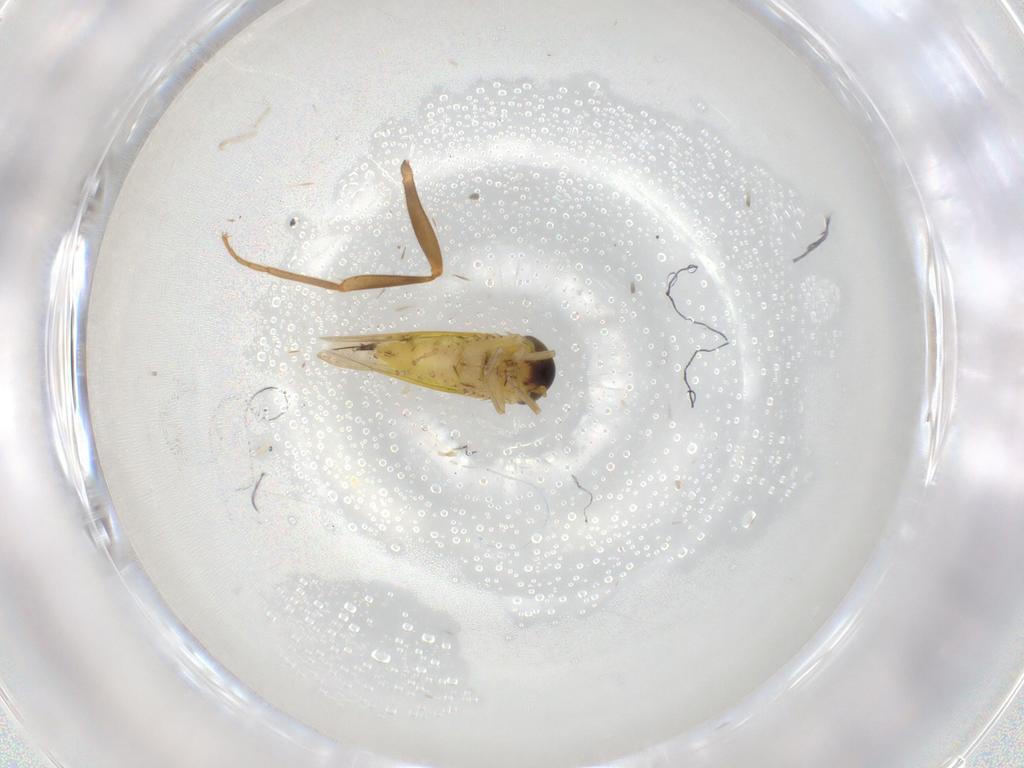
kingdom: Animalia
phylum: Arthropoda
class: Insecta
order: Hemiptera
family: Cicadellidae
